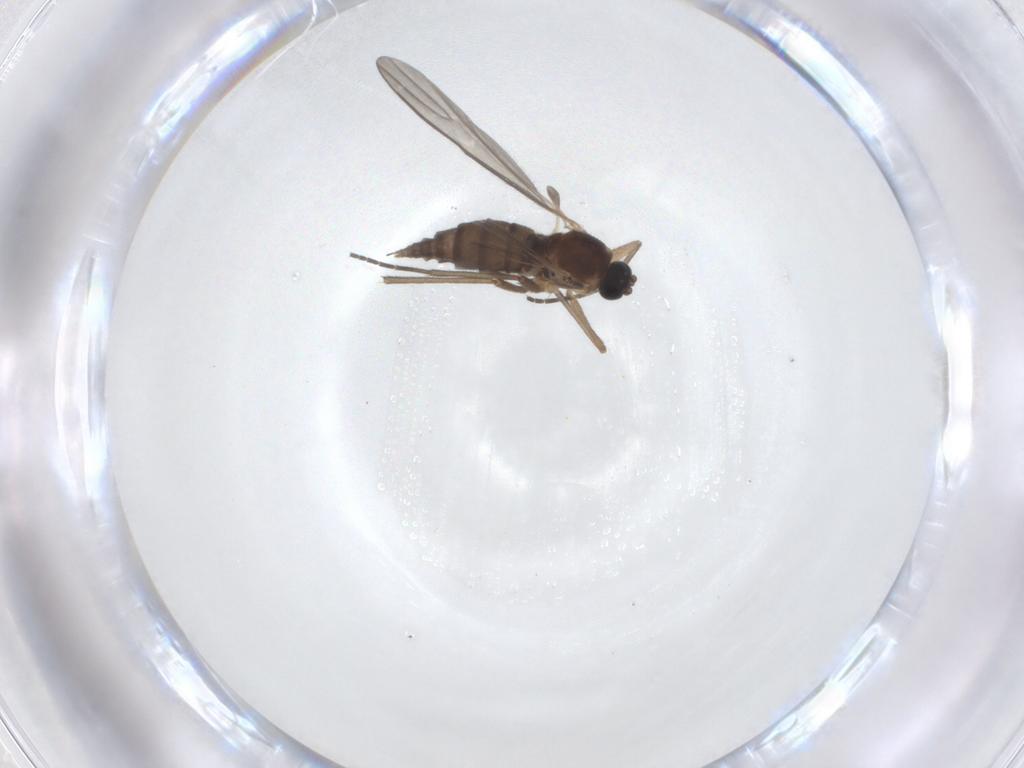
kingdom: Animalia
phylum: Arthropoda
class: Insecta
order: Diptera
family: Sciaridae
